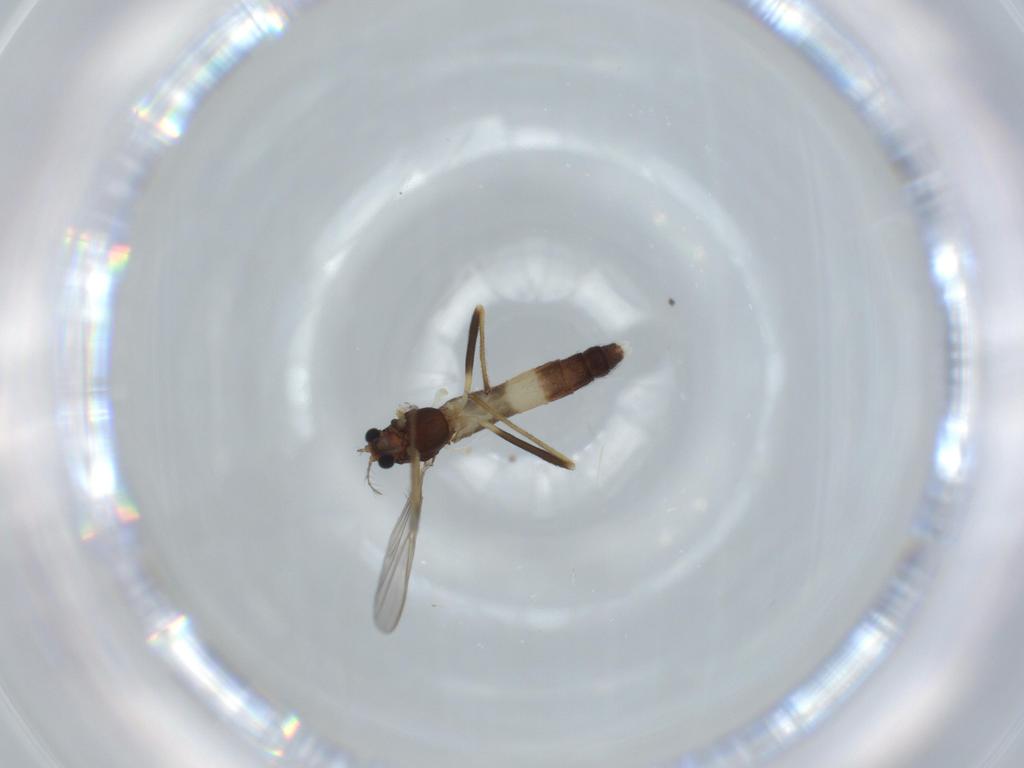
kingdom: Animalia
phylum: Arthropoda
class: Insecta
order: Diptera
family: Chironomidae
